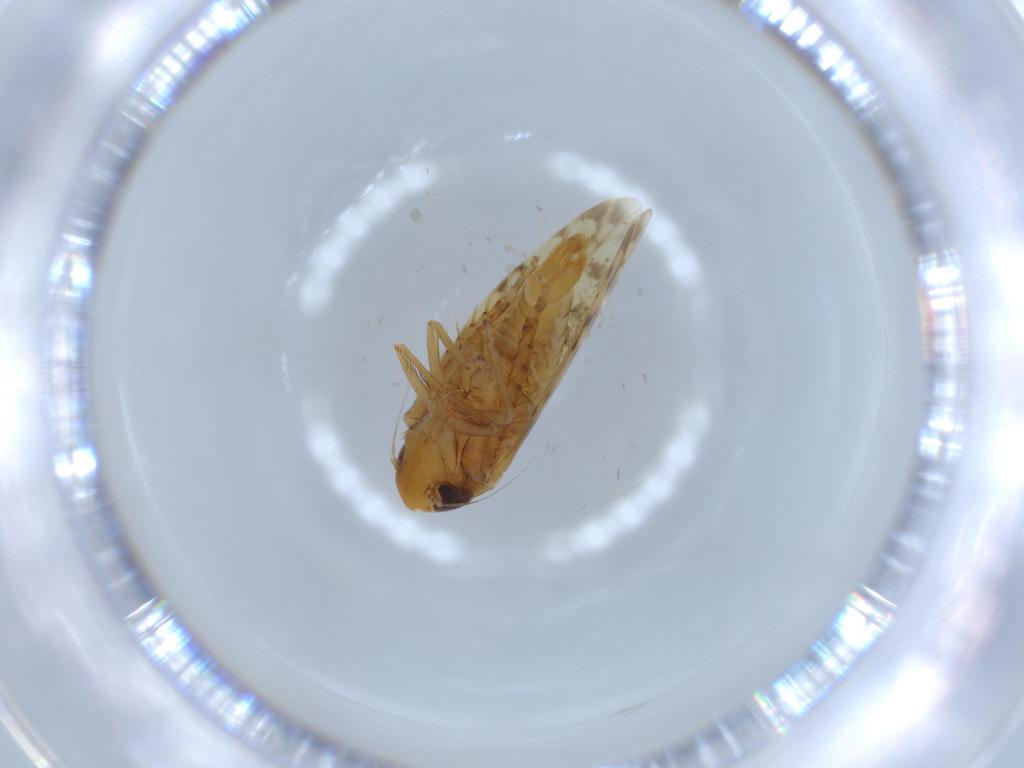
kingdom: Animalia
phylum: Arthropoda
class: Insecta
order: Hemiptera
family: Cicadellidae
